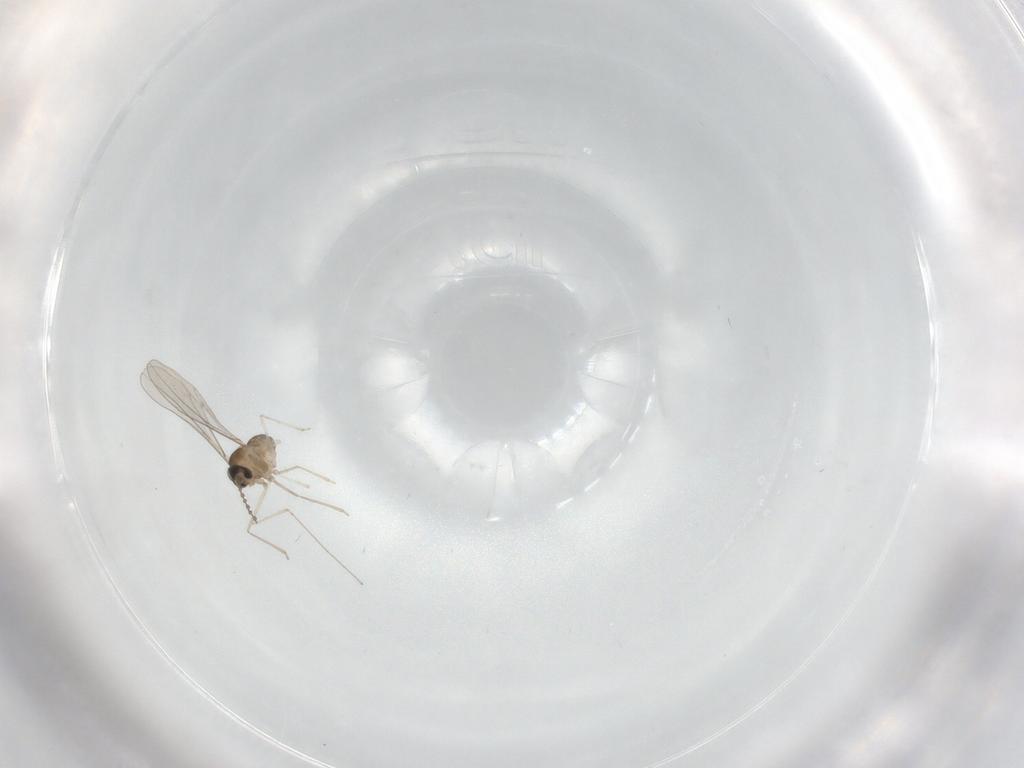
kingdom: Animalia
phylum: Arthropoda
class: Insecta
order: Diptera
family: Cecidomyiidae
